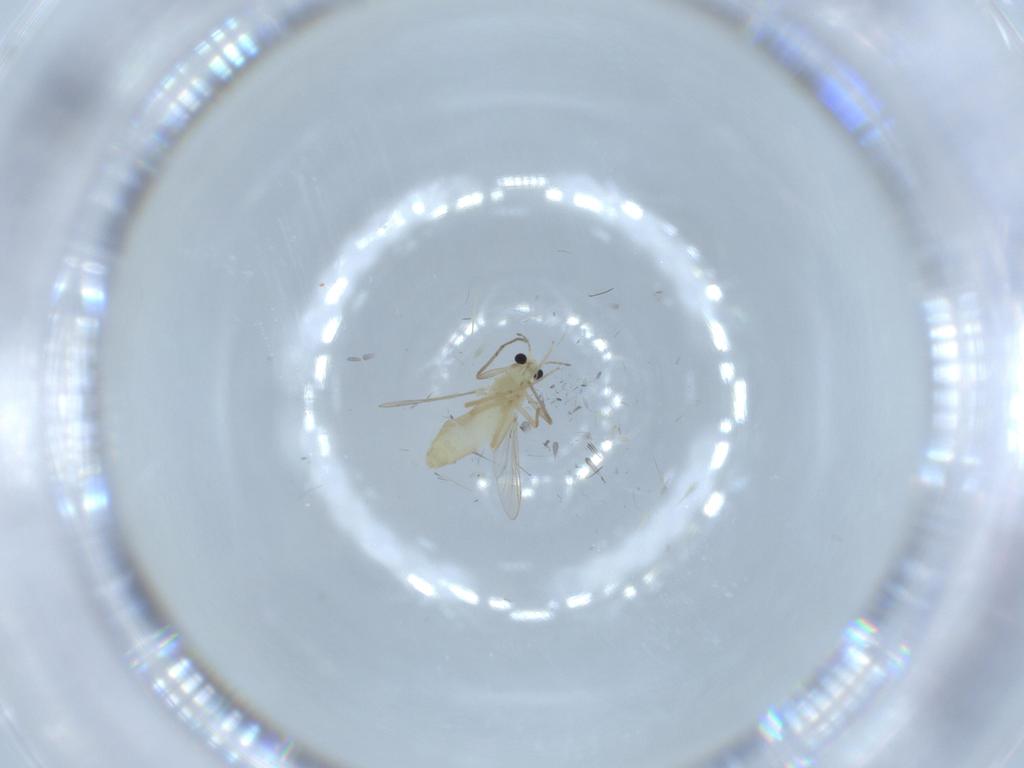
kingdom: Animalia
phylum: Arthropoda
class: Insecta
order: Diptera
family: Chironomidae
